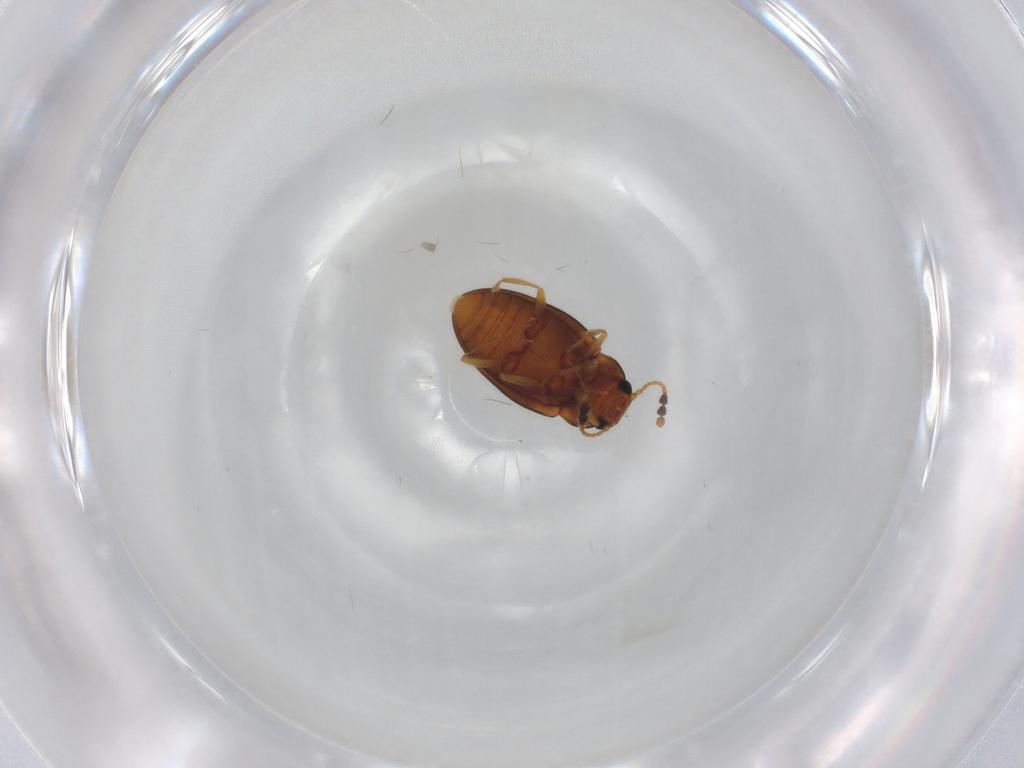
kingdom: Animalia
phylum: Arthropoda
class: Insecta
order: Coleoptera
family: Erotylidae
